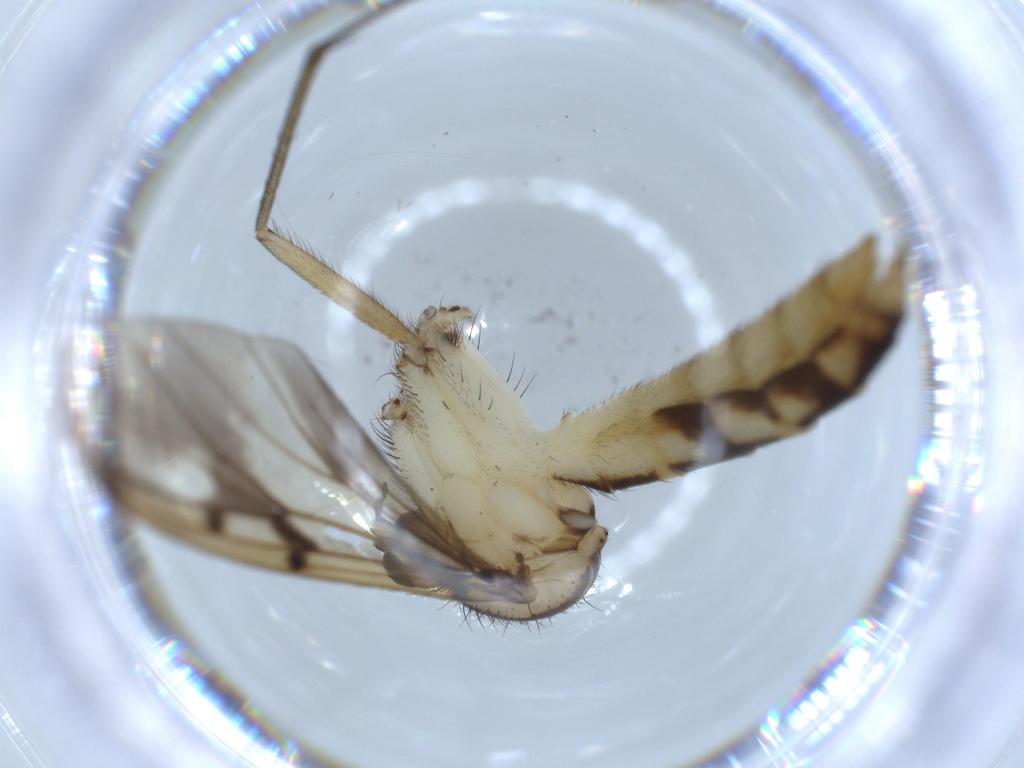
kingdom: Animalia
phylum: Arthropoda
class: Insecta
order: Diptera
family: Mycetophilidae
